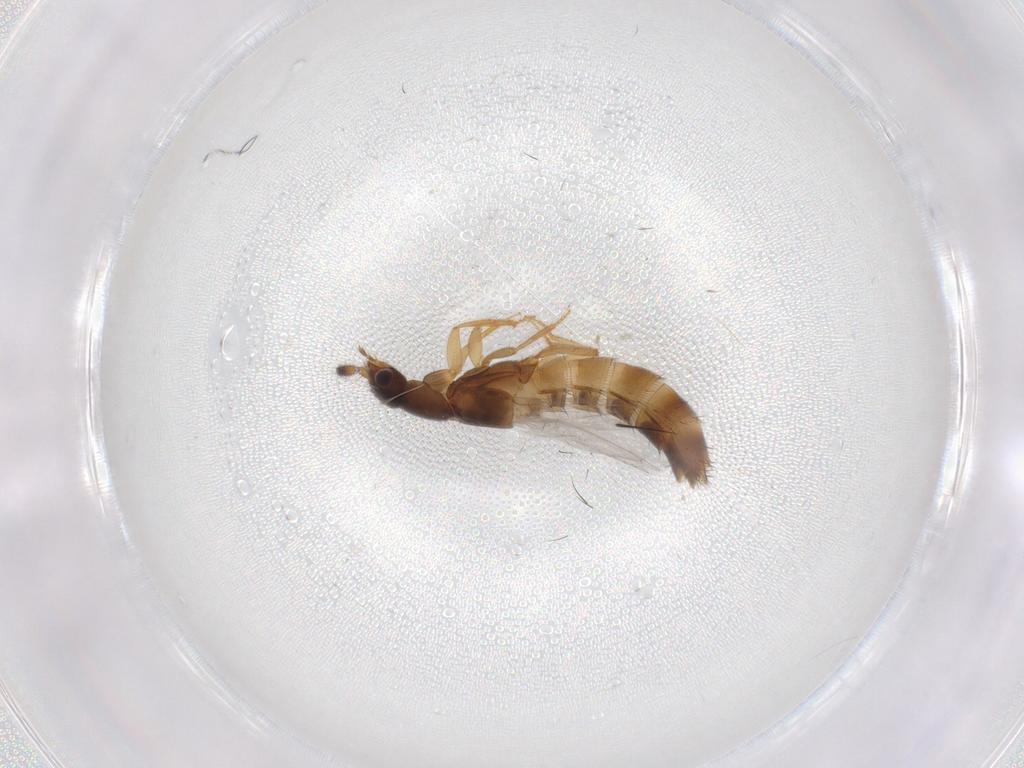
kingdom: Animalia
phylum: Arthropoda
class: Insecta
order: Coleoptera
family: Staphylinidae
